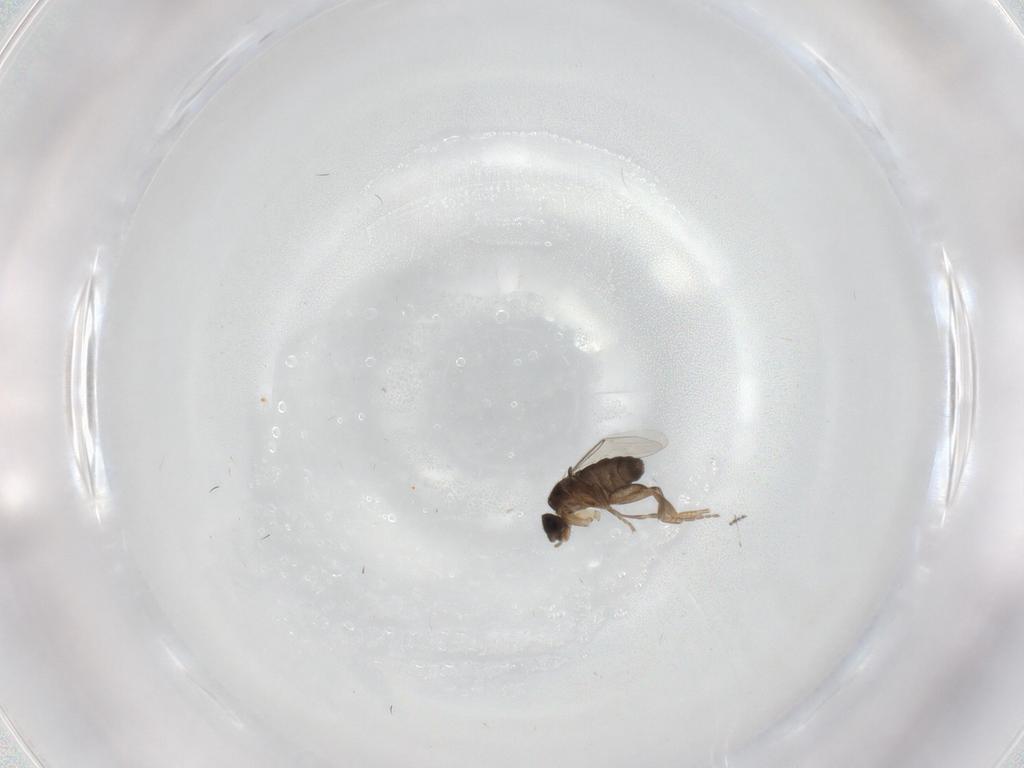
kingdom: Animalia
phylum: Arthropoda
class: Insecta
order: Diptera
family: Phoridae
